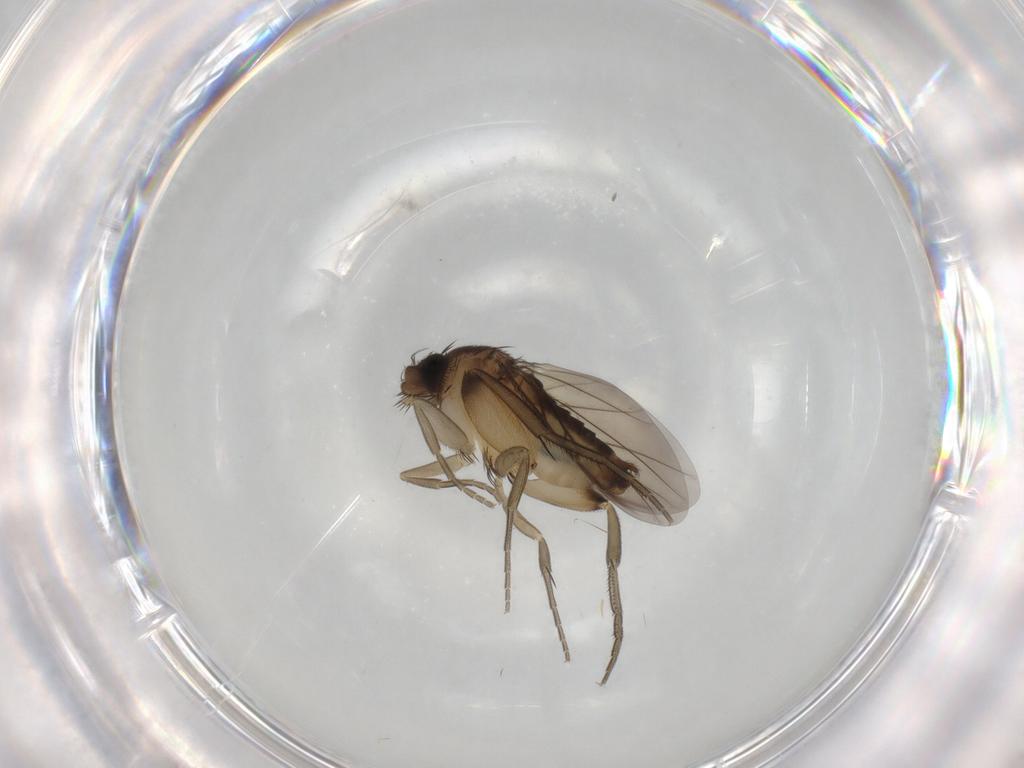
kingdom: Animalia
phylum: Arthropoda
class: Insecta
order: Diptera
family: Phoridae
